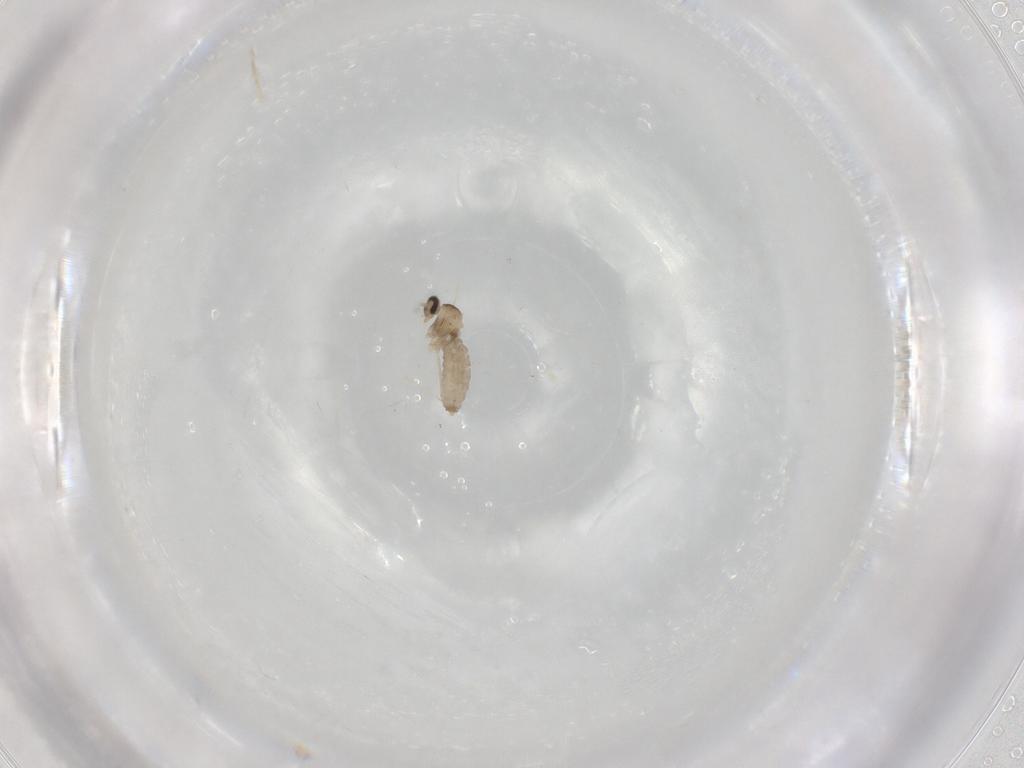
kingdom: Animalia
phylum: Arthropoda
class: Insecta
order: Diptera
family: Cecidomyiidae
